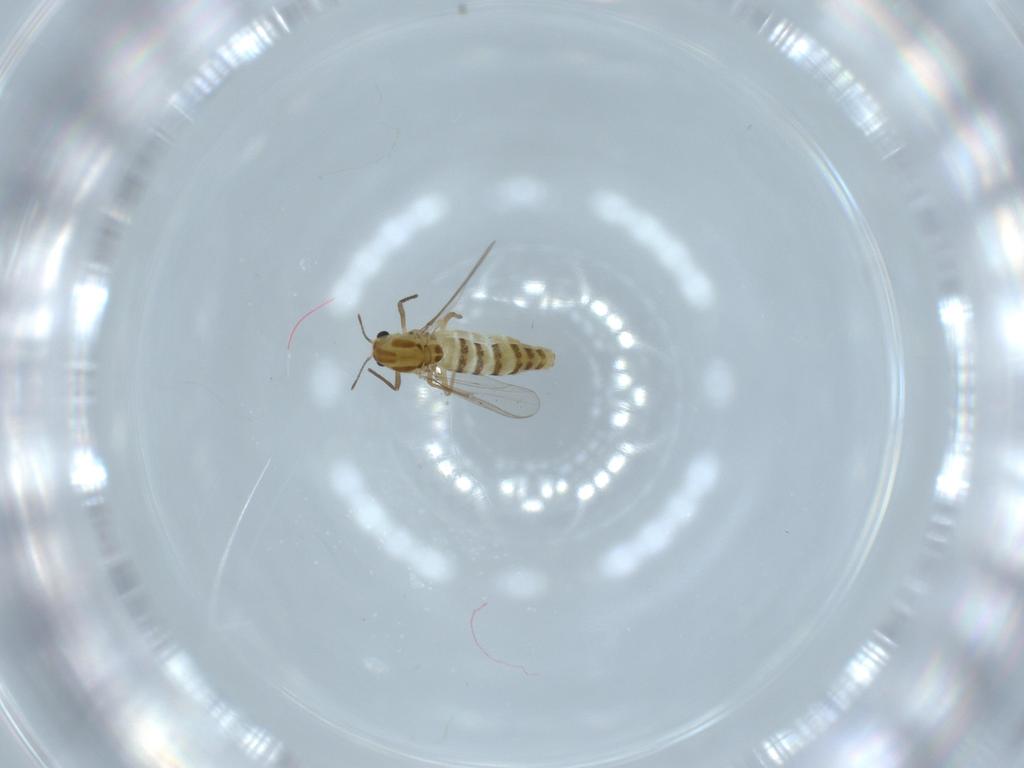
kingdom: Animalia
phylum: Arthropoda
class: Insecta
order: Diptera
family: Chironomidae
